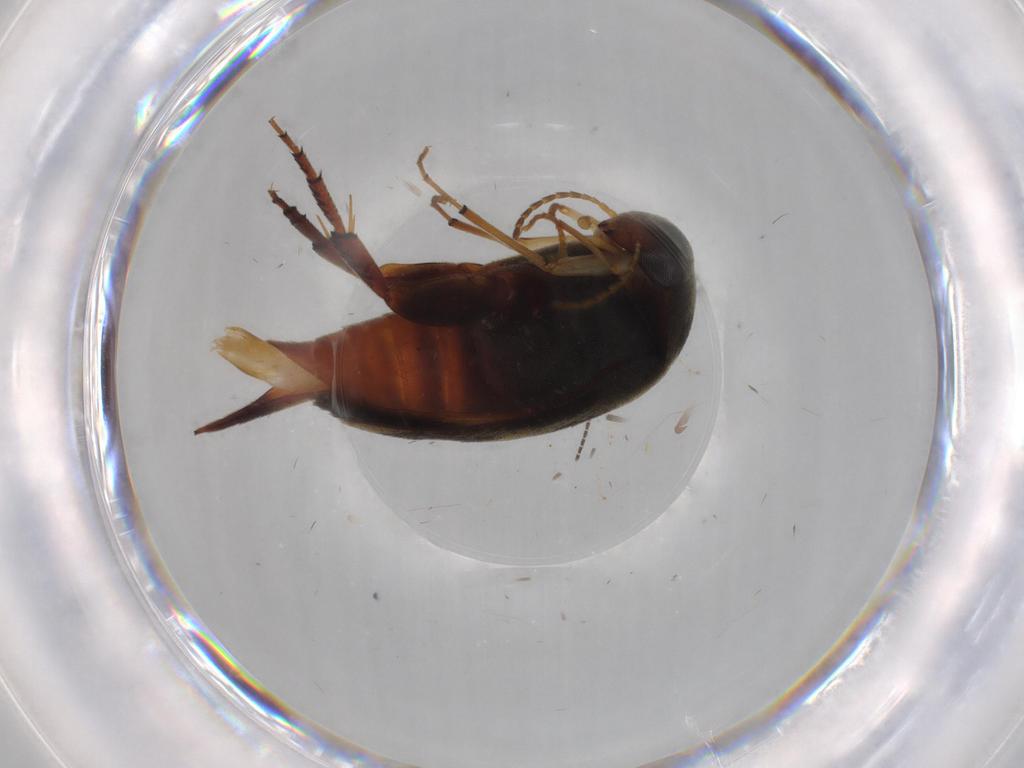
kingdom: Animalia
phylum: Arthropoda
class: Insecta
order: Coleoptera
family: Mordellidae
